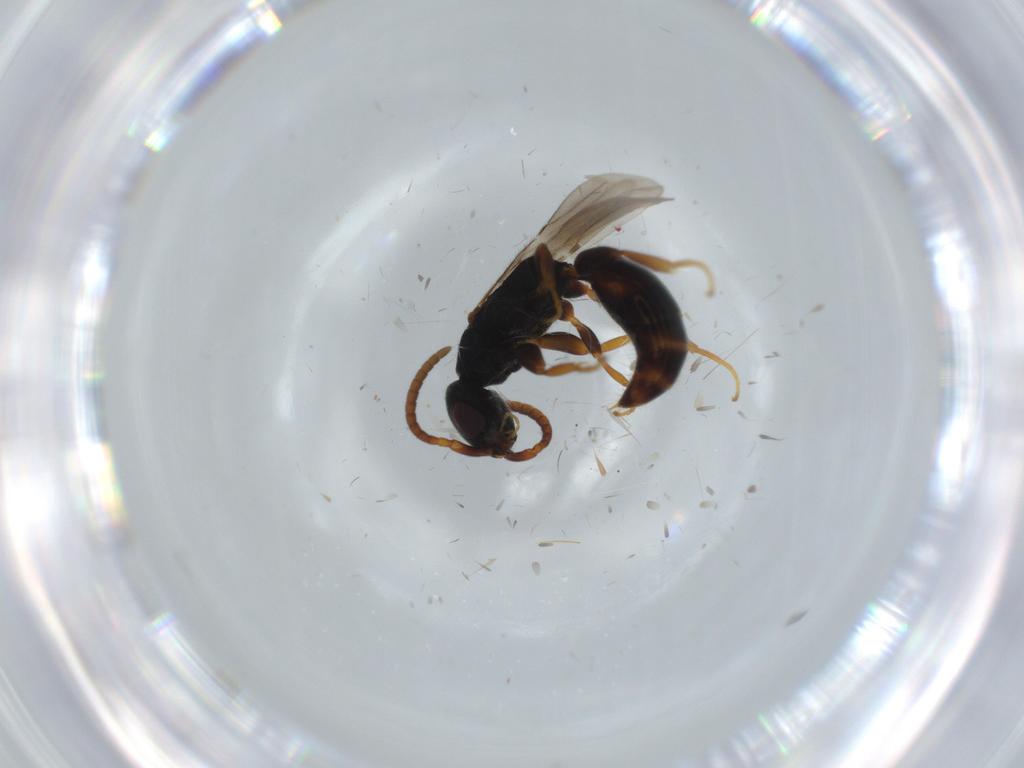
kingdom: Animalia
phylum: Arthropoda
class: Insecta
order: Hymenoptera
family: Bethylidae
